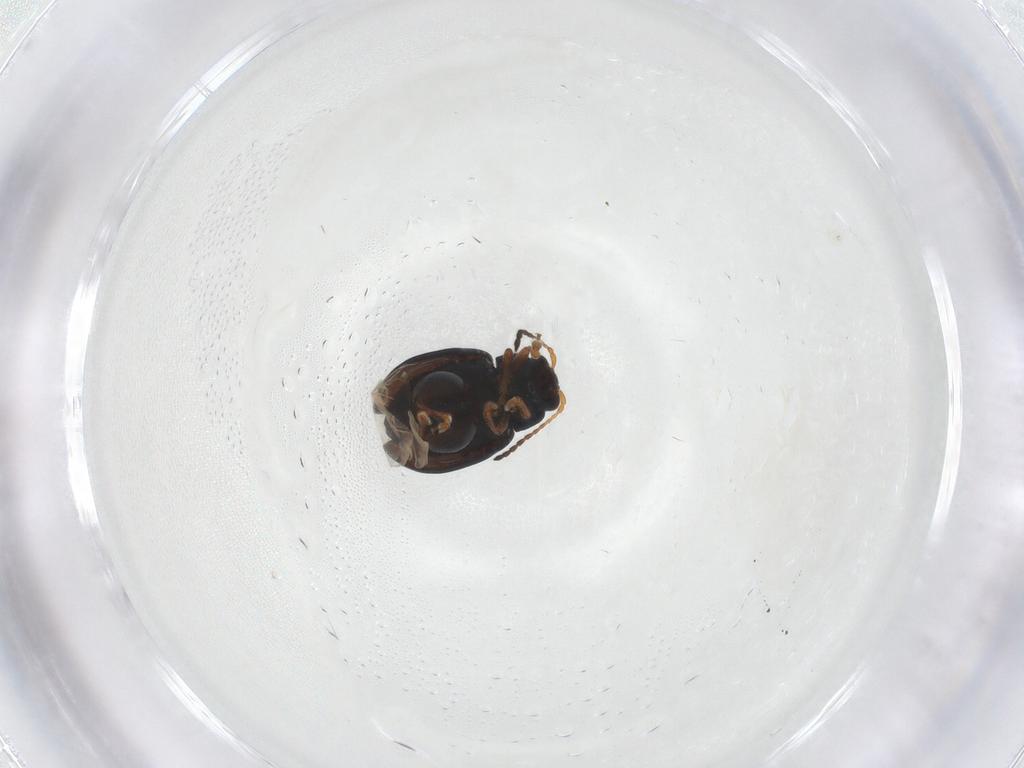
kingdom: Animalia
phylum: Arthropoda
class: Insecta
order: Coleoptera
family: Chrysomelidae
